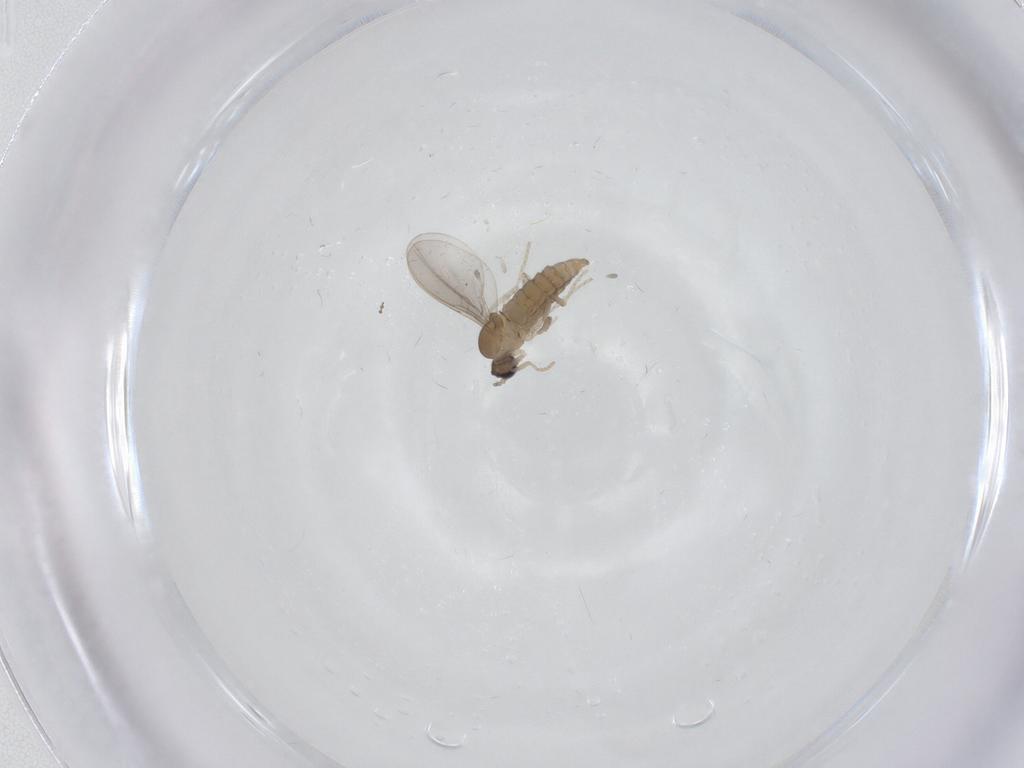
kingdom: Animalia
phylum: Arthropoda
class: Insecta
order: Diptera
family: Cecidomyiidae
